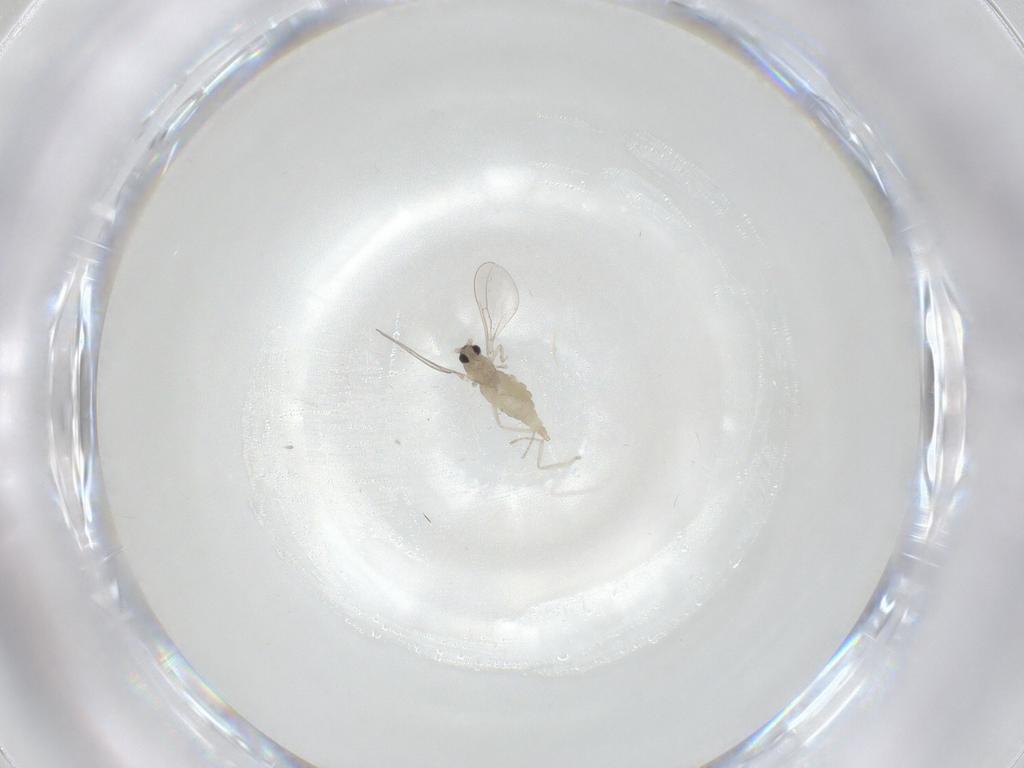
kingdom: Animalia
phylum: Arthropoda
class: Insecta
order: Diptera
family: Cecidomyiidae
